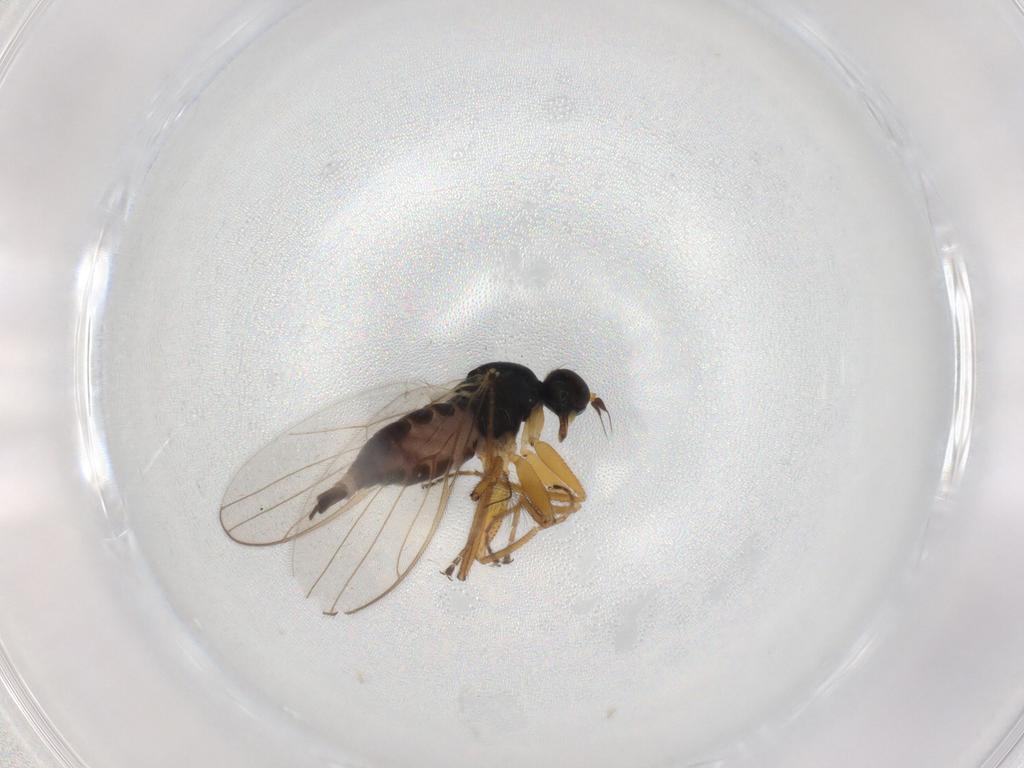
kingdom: Animalia
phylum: Arthropoda
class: Insecta
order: Diptera
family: Hybotidae
